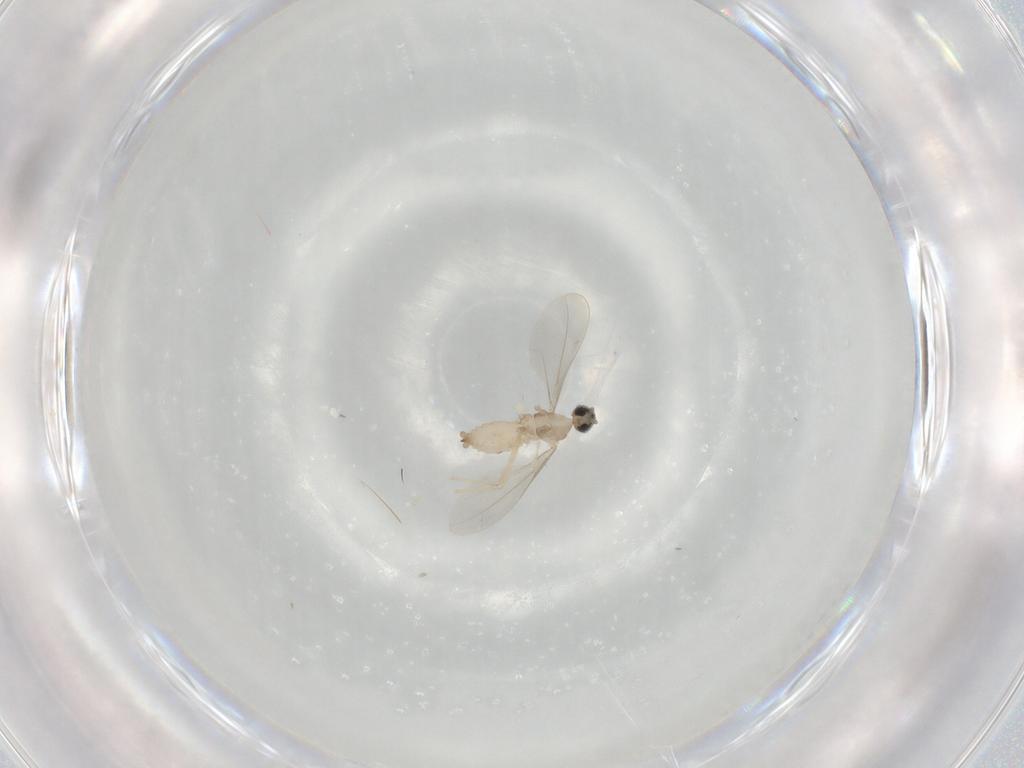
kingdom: Animalia
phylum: Arthropoda
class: Insecta
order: Diptera
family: Cecidomyiidae
